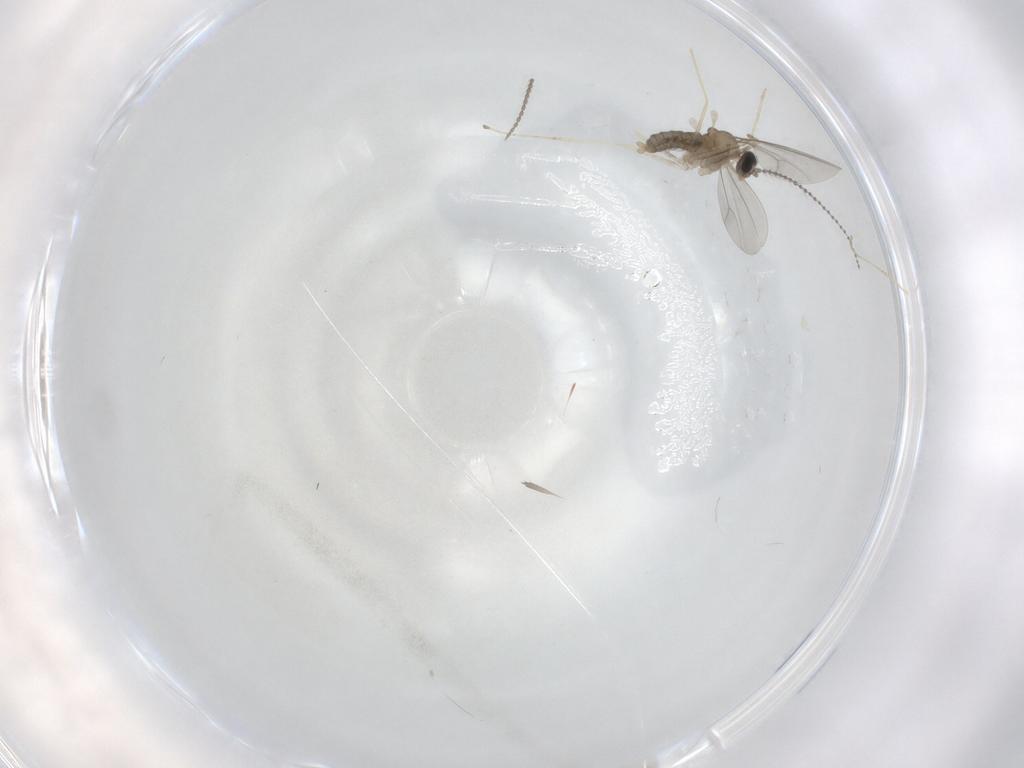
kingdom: Animalia
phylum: Arthropoda
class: Insecta
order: Diptera
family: Cecidomyiidae
